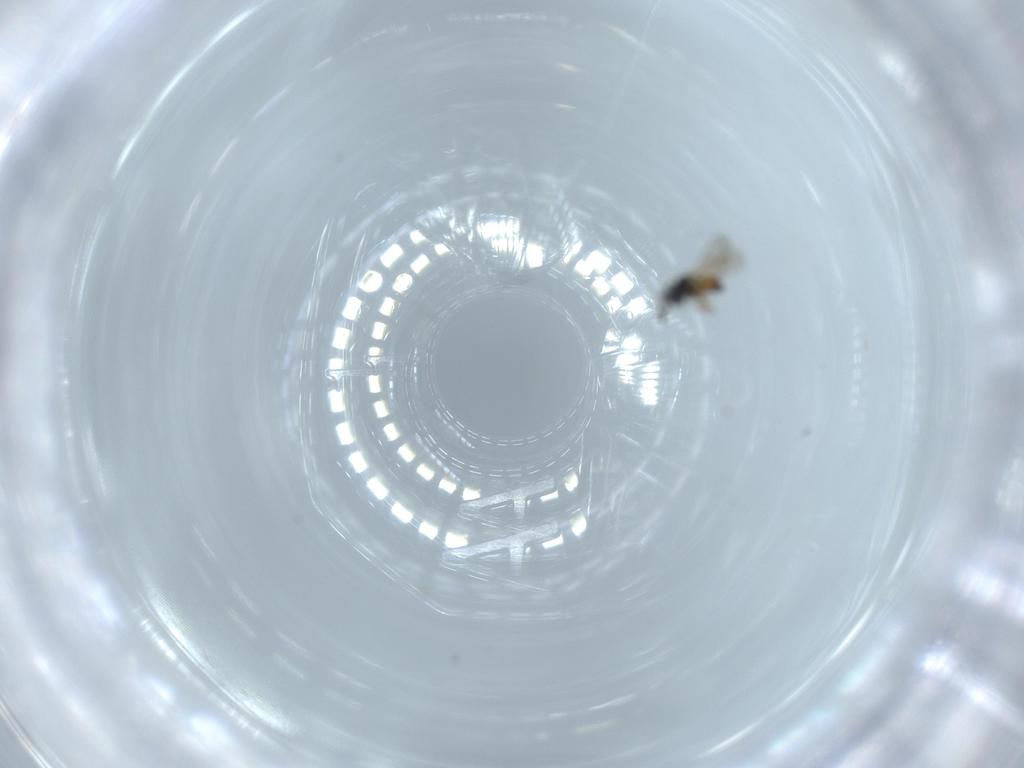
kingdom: Animalia
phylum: Arthropoda
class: Insecta
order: Hymenoptera
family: Scelionidae
